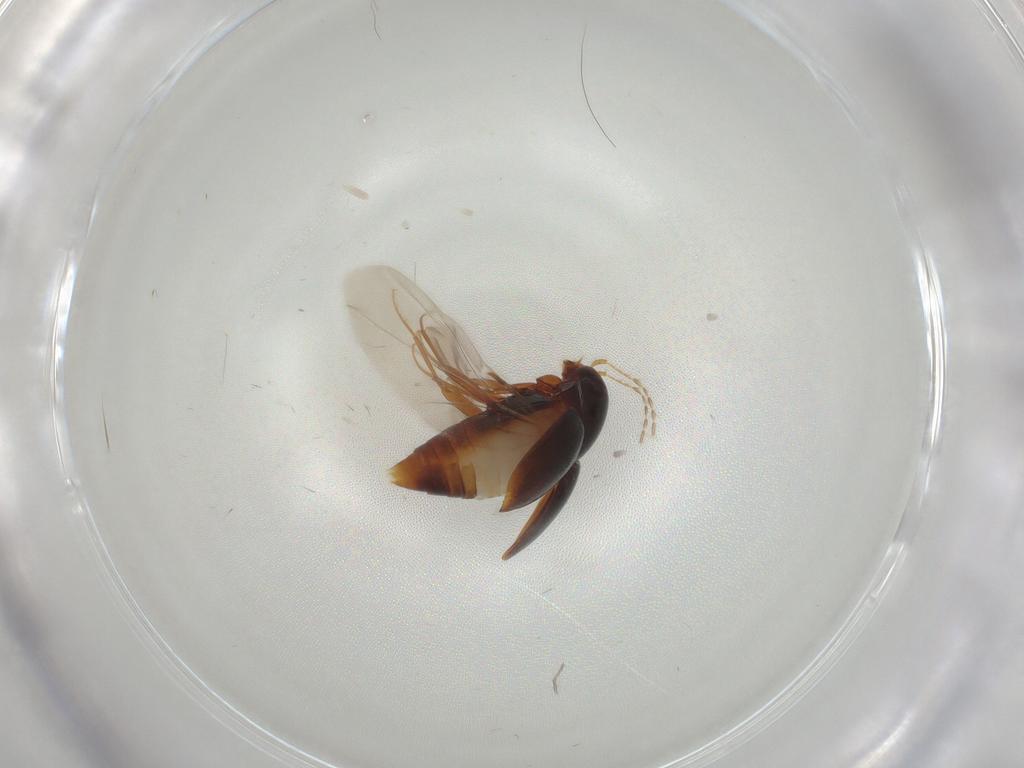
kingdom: Animalia
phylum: Arthropoda
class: Insecta
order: Coleoptera
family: Staphylinidae
